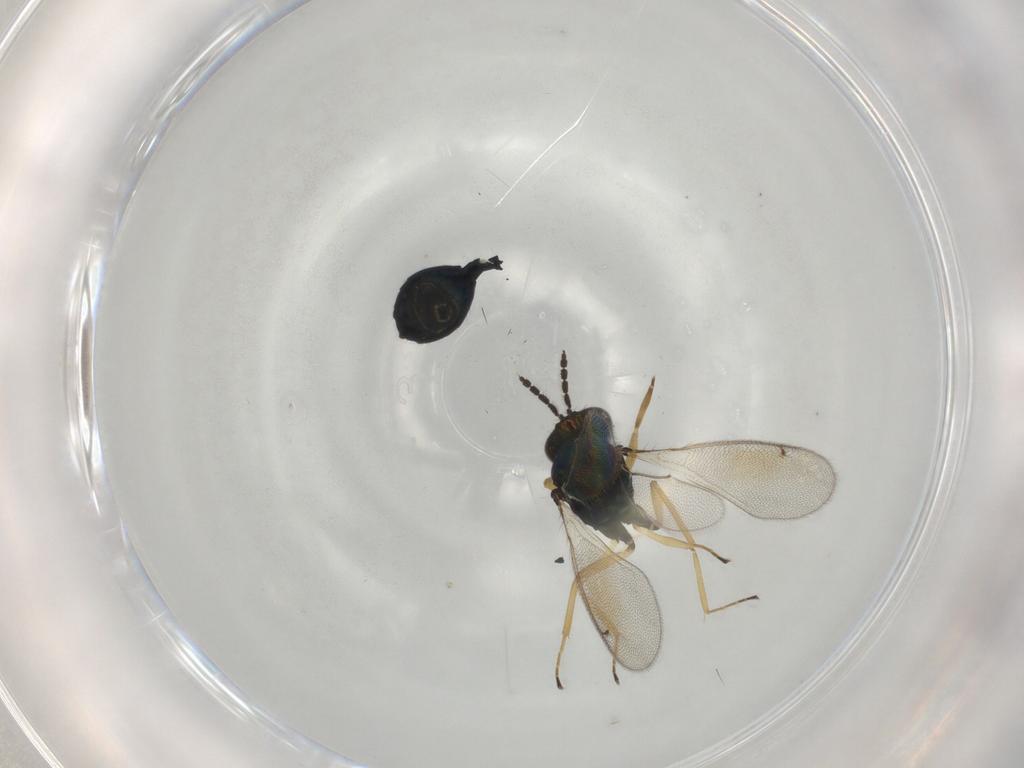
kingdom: Animalia
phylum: Arthropoda
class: Insecta
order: Hymenoptera
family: Eulophidae
